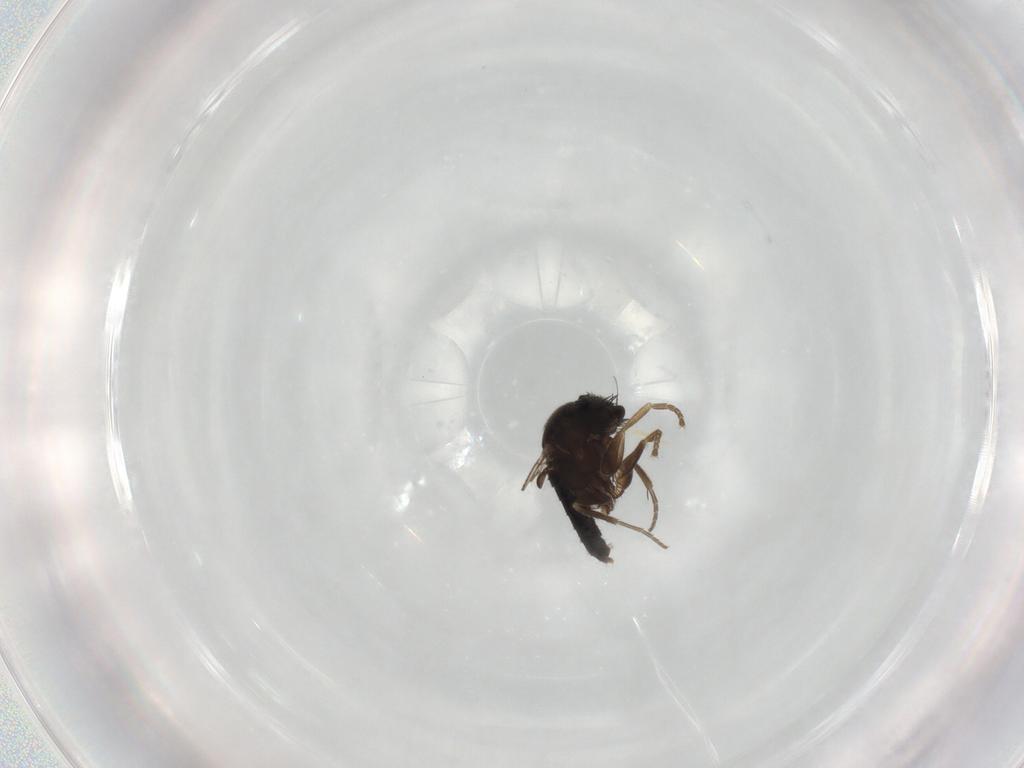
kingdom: Animalia
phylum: Arthropoda
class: Insecta
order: Diptera
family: Phoridae
